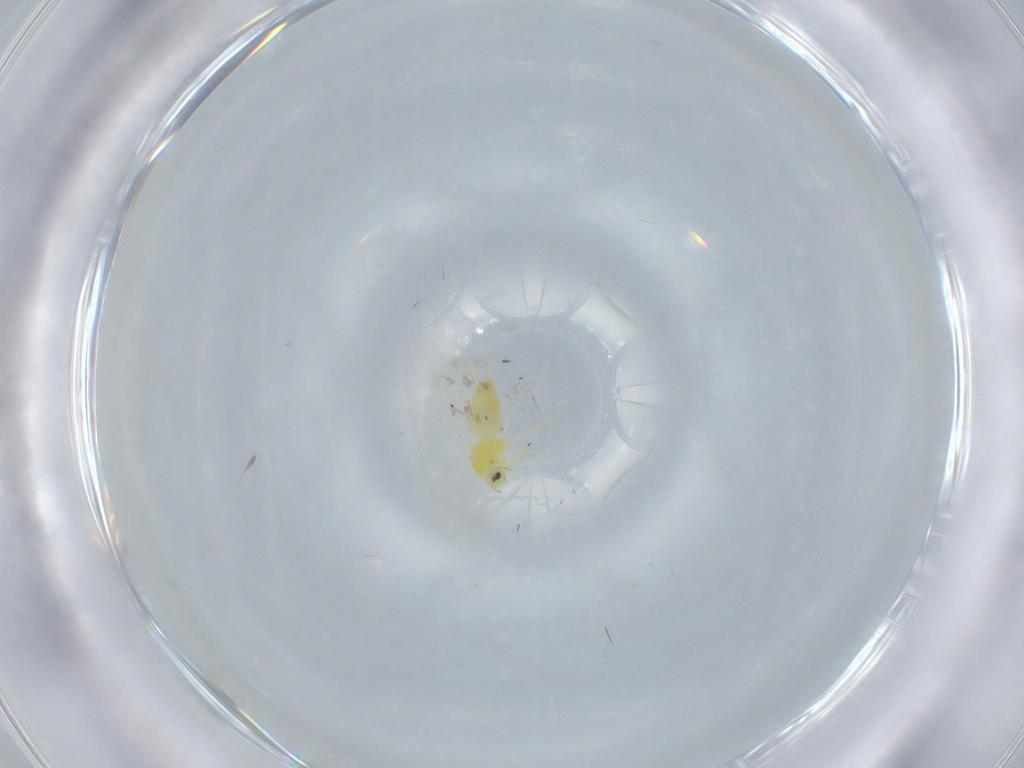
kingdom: Animalia
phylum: Arthropoda
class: Insecta
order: Hemiptera
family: Aleyrodidae
